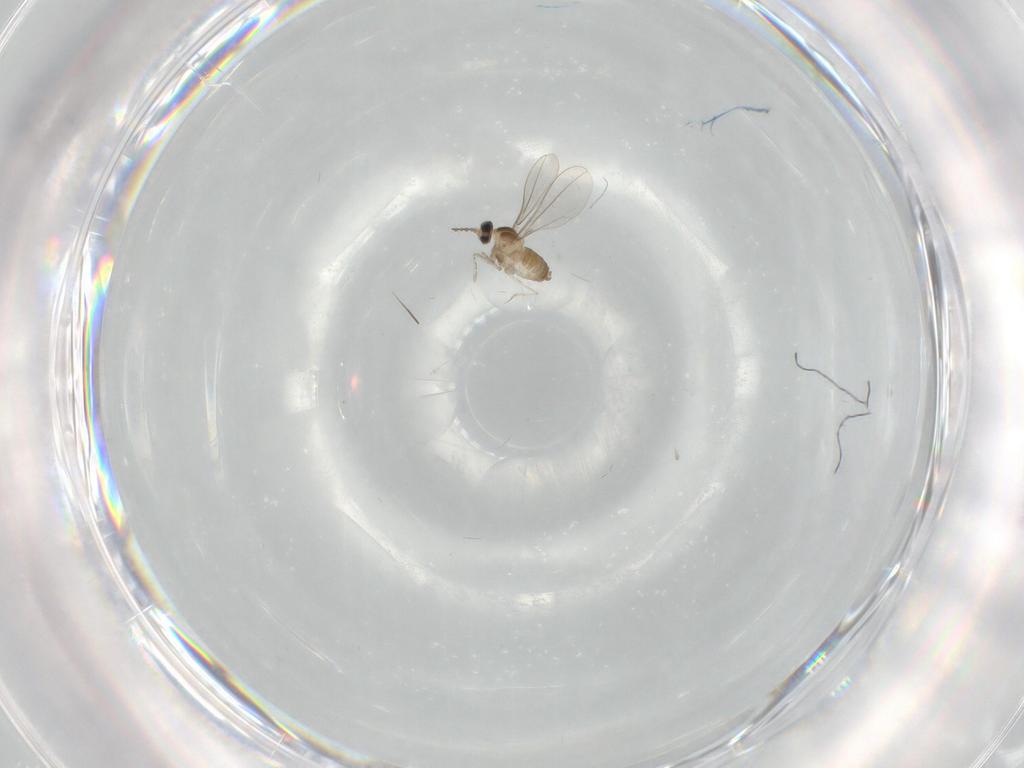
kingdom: Animalia
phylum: Arthropoda
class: Insecta
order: Diptera
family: Cecidomyiidae
